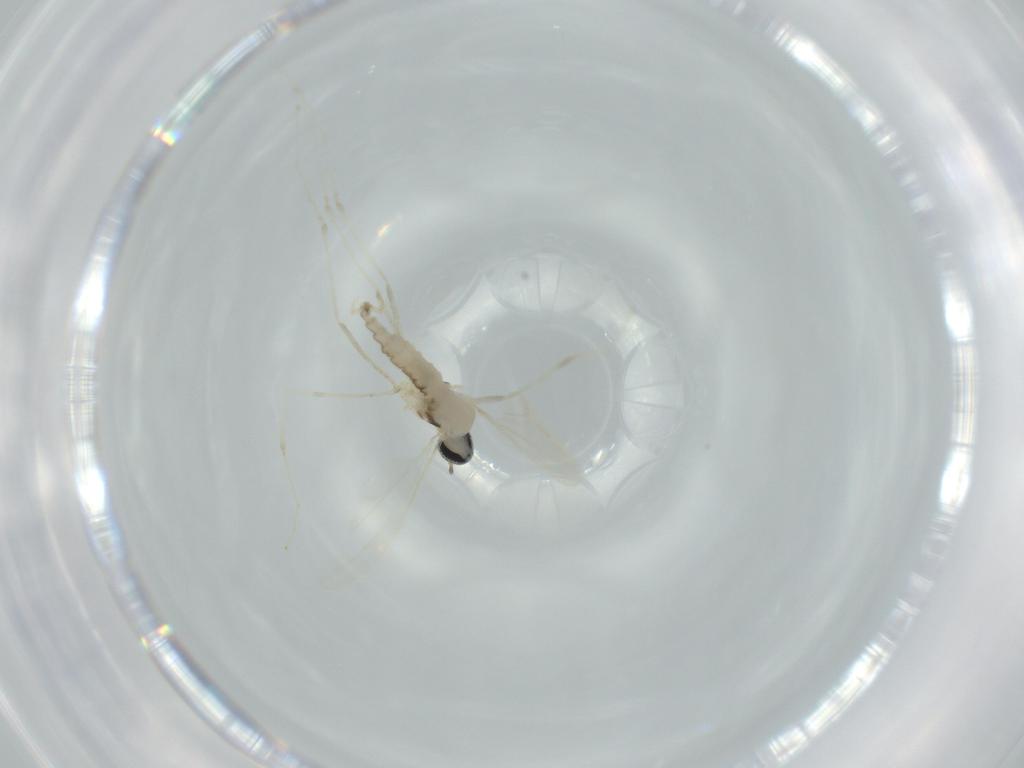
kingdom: Animalia
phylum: Arthropoda
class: Insecta
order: Diptera
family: Cecidomyiidae
